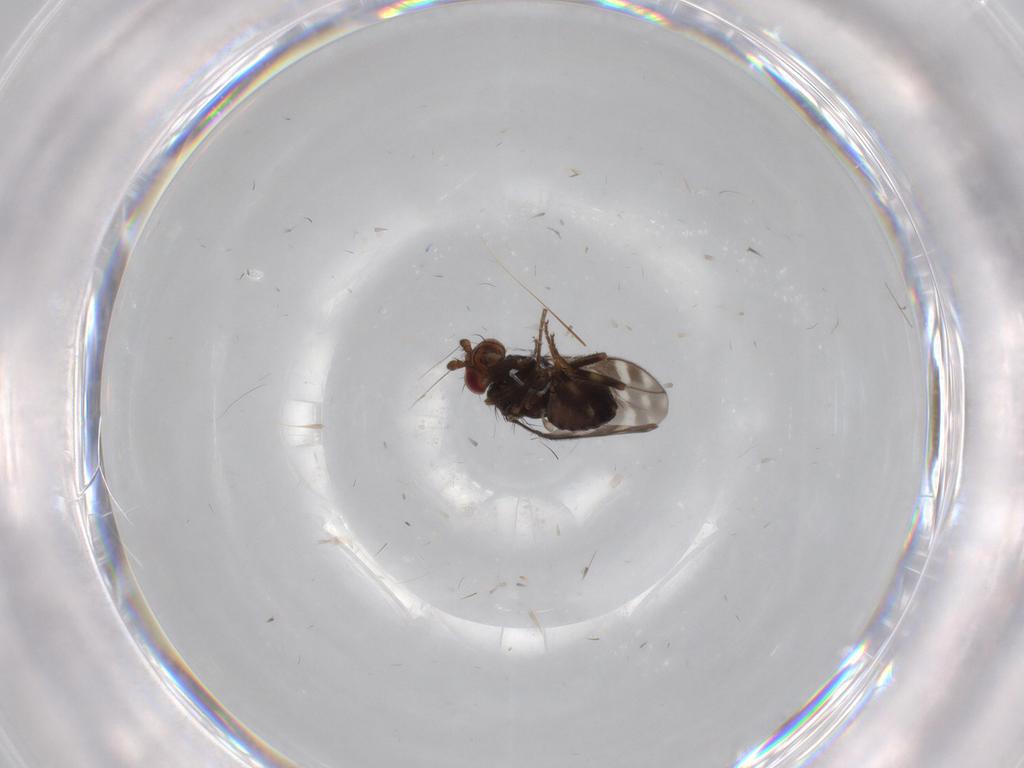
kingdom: Animalia
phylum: Arthropoda
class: Insecta
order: Diptera
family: Sphaeroceridae
